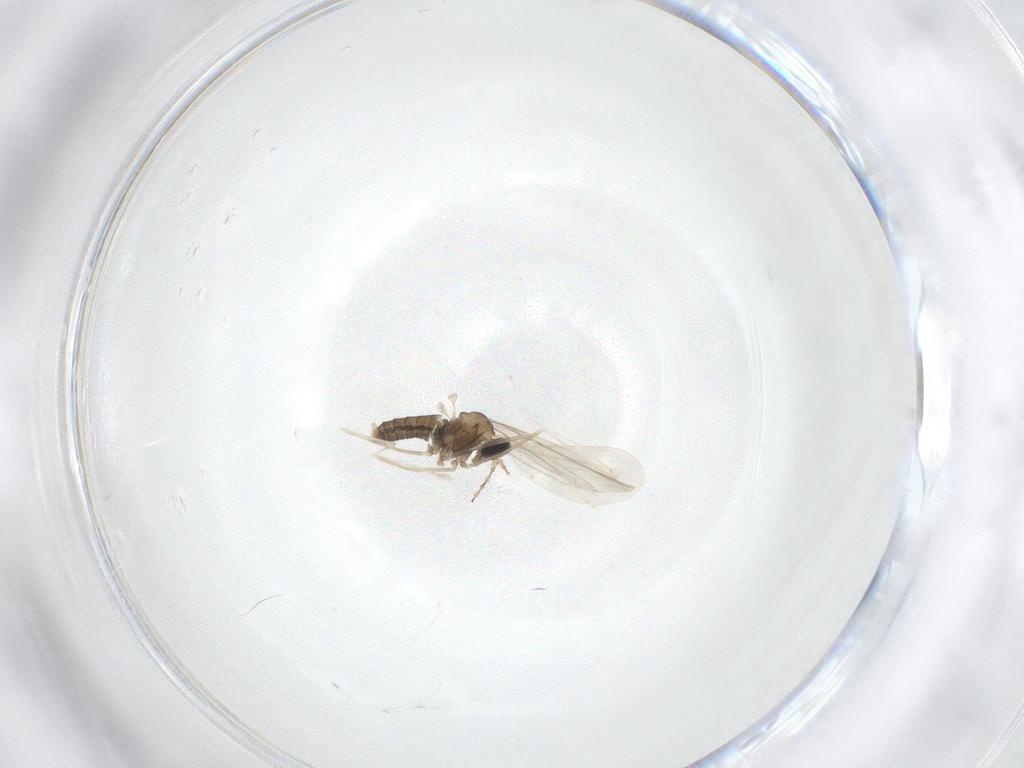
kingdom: Animalia
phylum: Arthropoda
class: Insecta
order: Diptera
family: Cecidomyiidae
